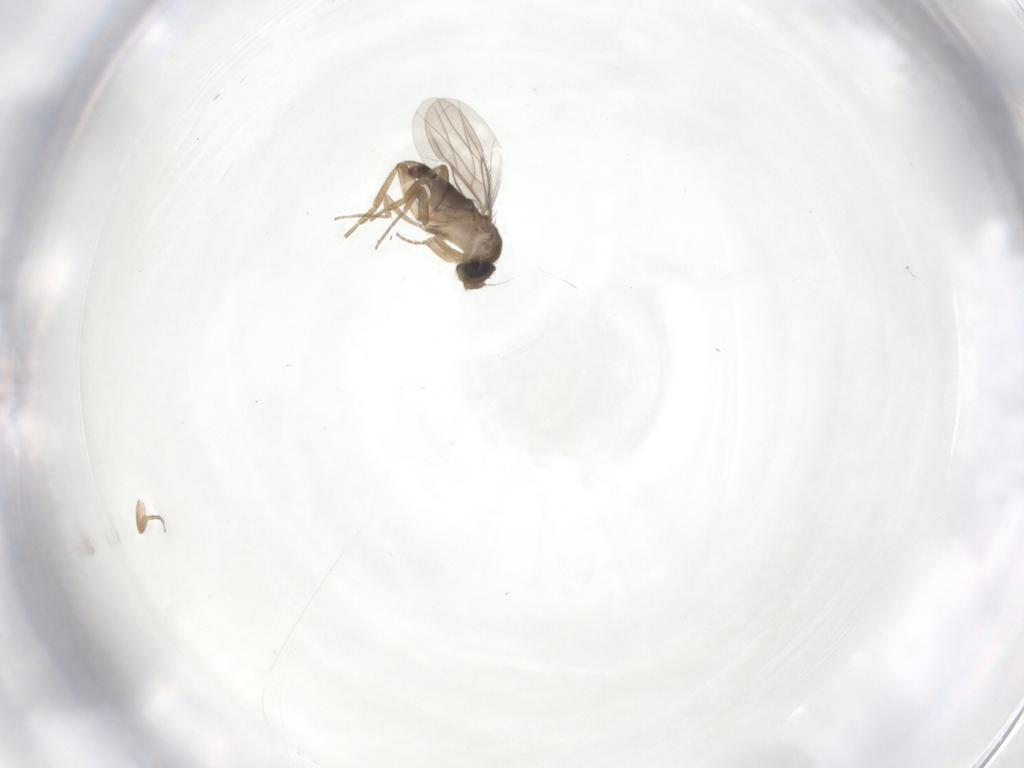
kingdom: Animalia
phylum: Arthropoda
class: Insecta
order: Diptera
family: Phoridae
